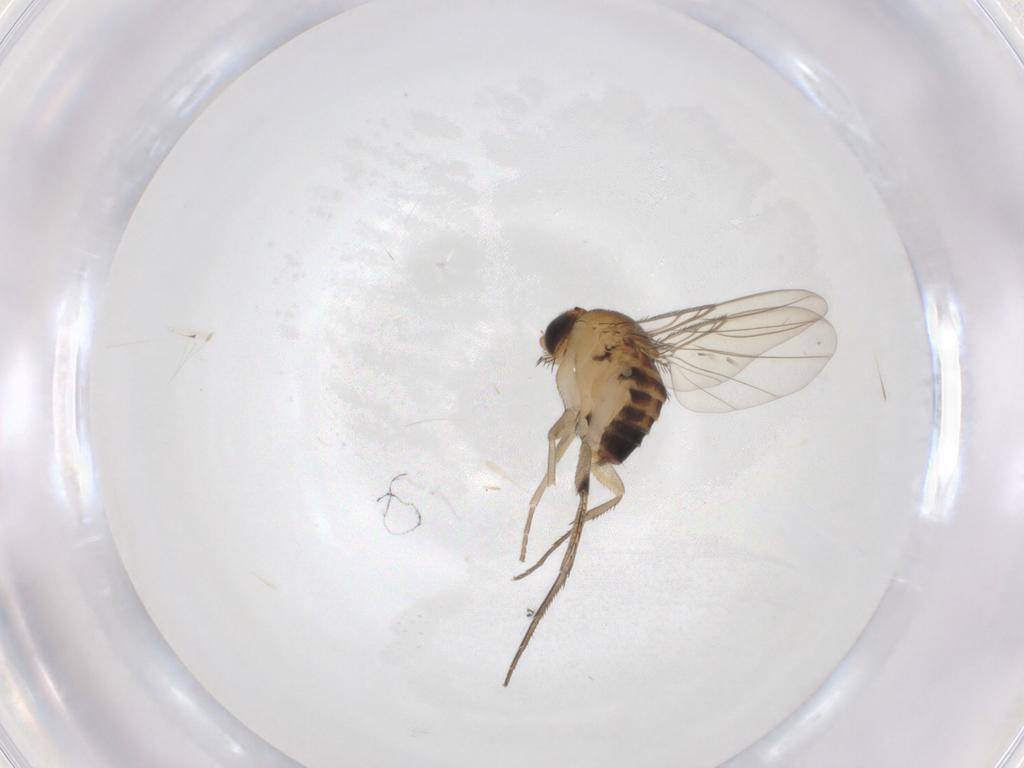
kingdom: Animalia
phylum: Arthropoda
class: Insecta
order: Diptera
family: Phoridae
